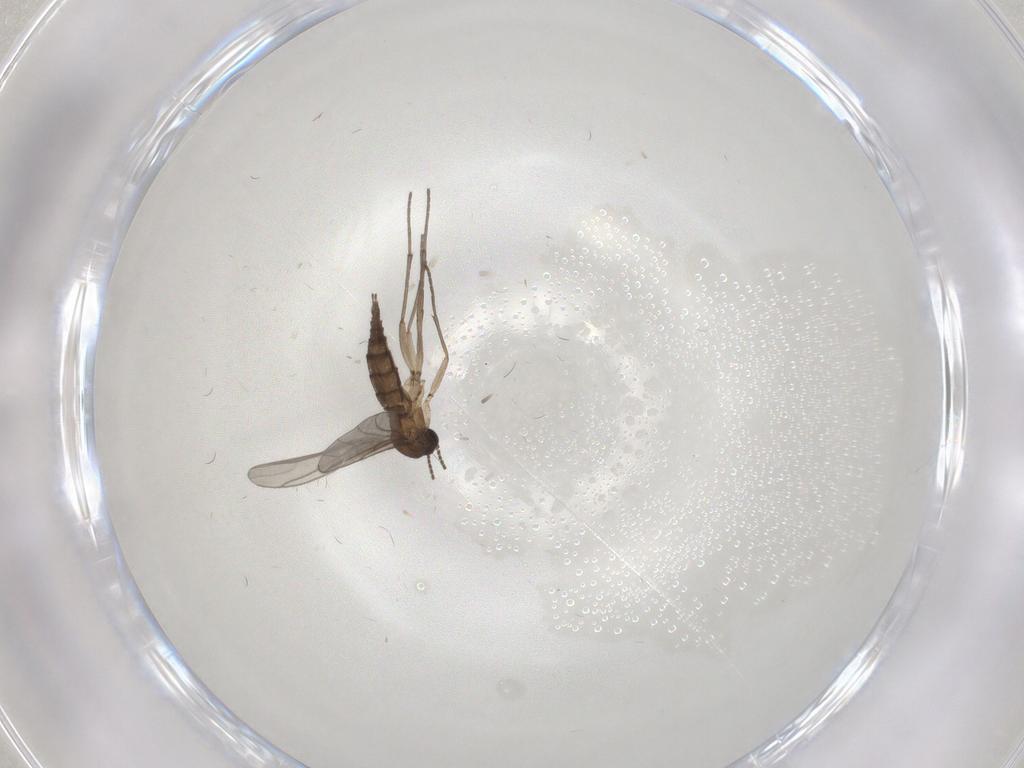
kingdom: Animalia
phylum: Arthropoda
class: Insecta
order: Diptera
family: Sciaridae
